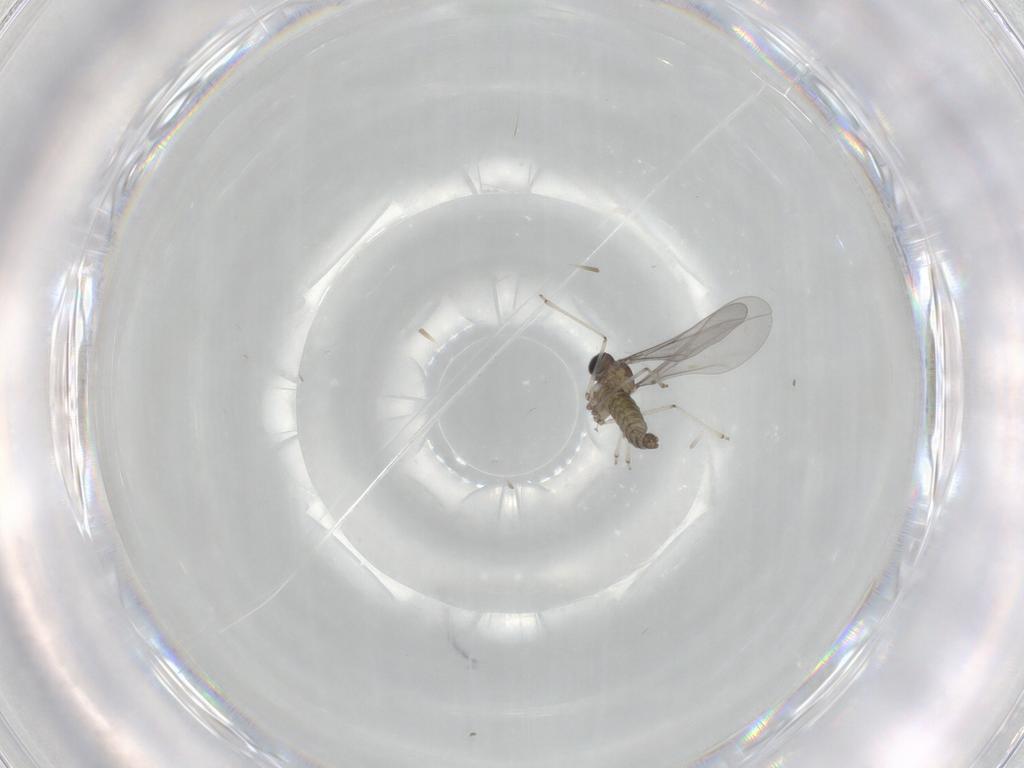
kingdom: Animalia
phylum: Arthropoda
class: Insecta
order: Diptera
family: Cecidomyiidae
